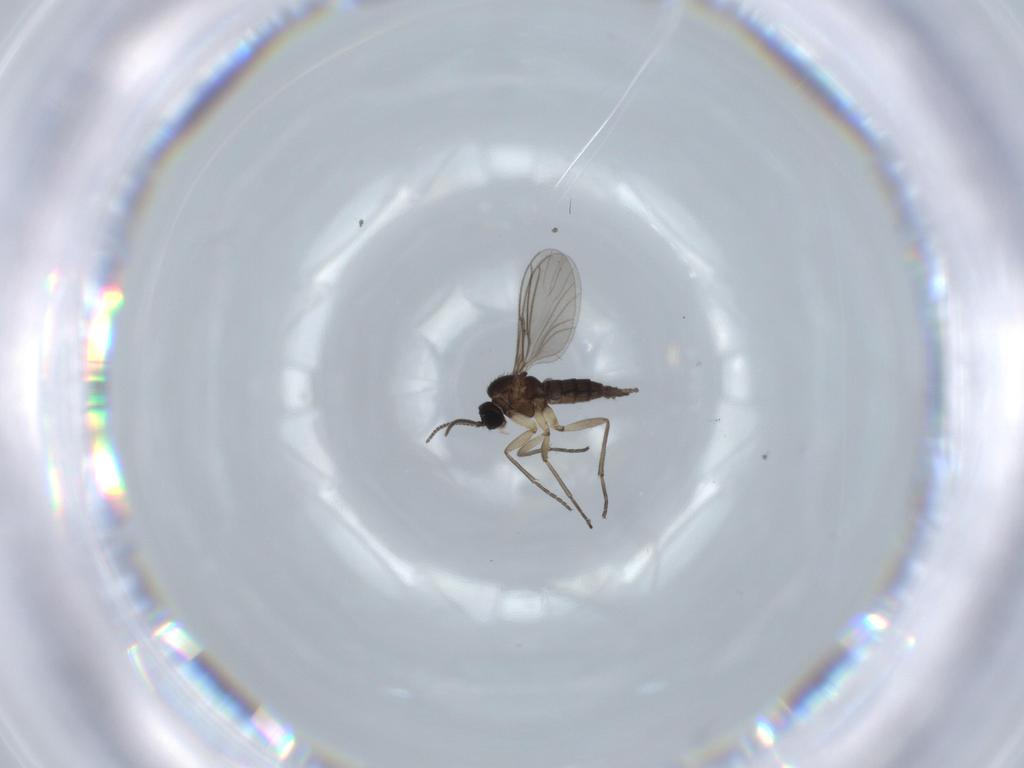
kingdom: Animalia
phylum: Arthropoda
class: Insecta
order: Diptera
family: Sciaridae
